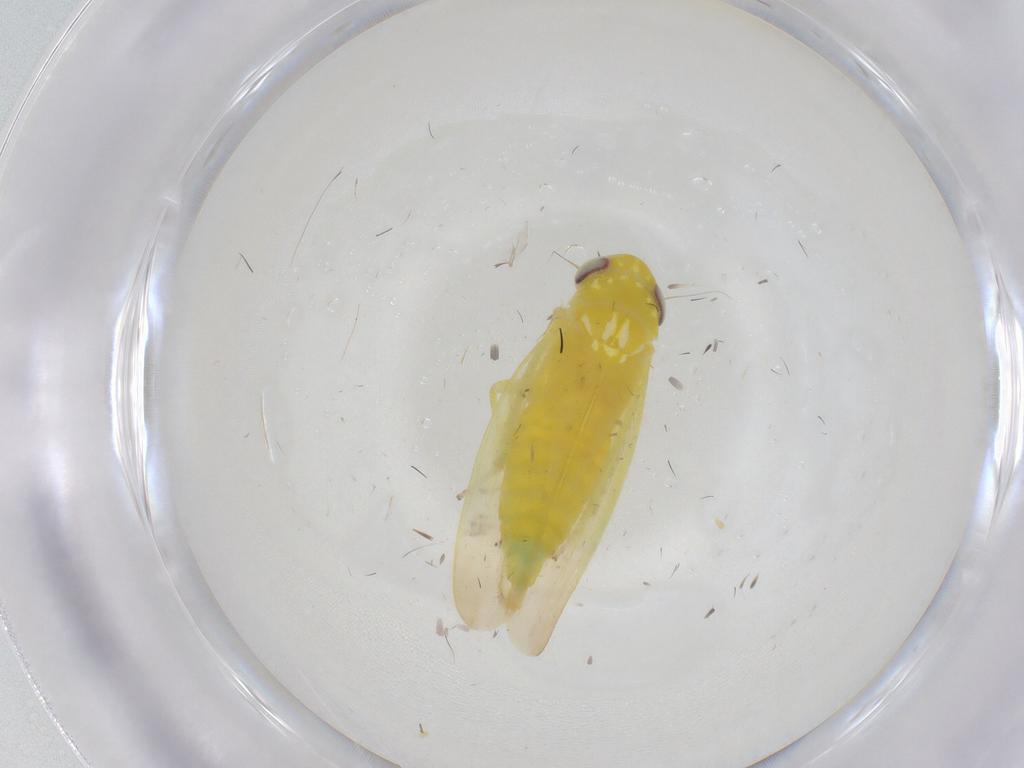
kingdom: Animalia
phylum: Arthropoda
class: Insecta
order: Hemiptera
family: Cicadellidae
